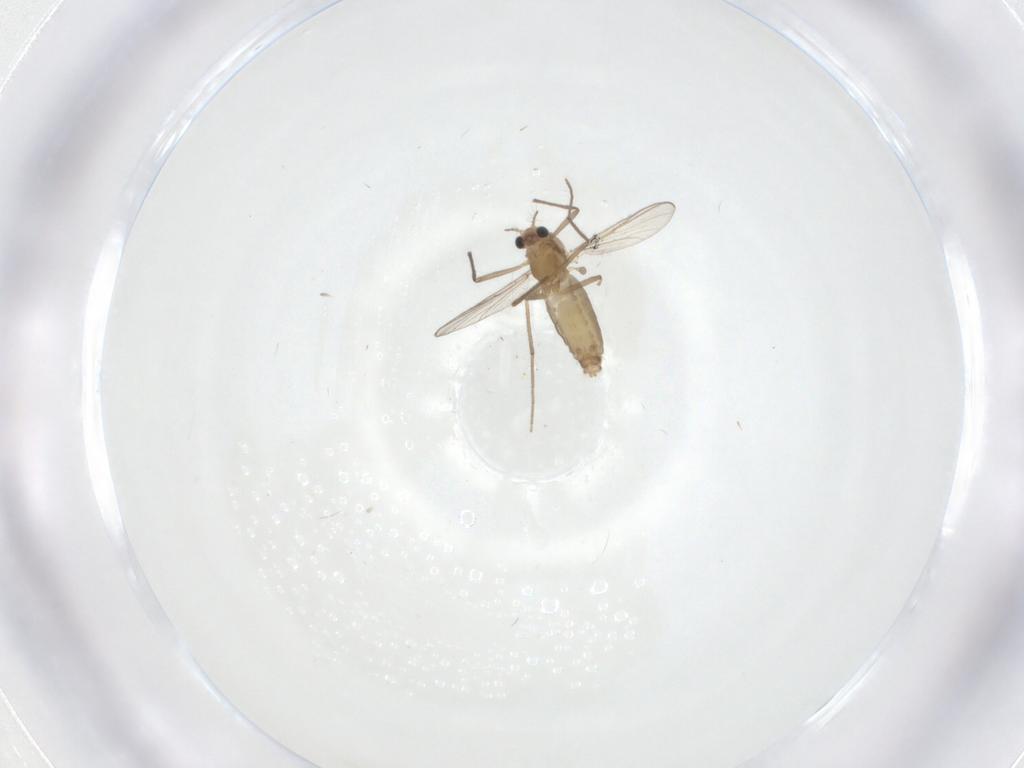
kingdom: Animalia
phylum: Arthropoda
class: Insecta
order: Diptera
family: Chironomidae
